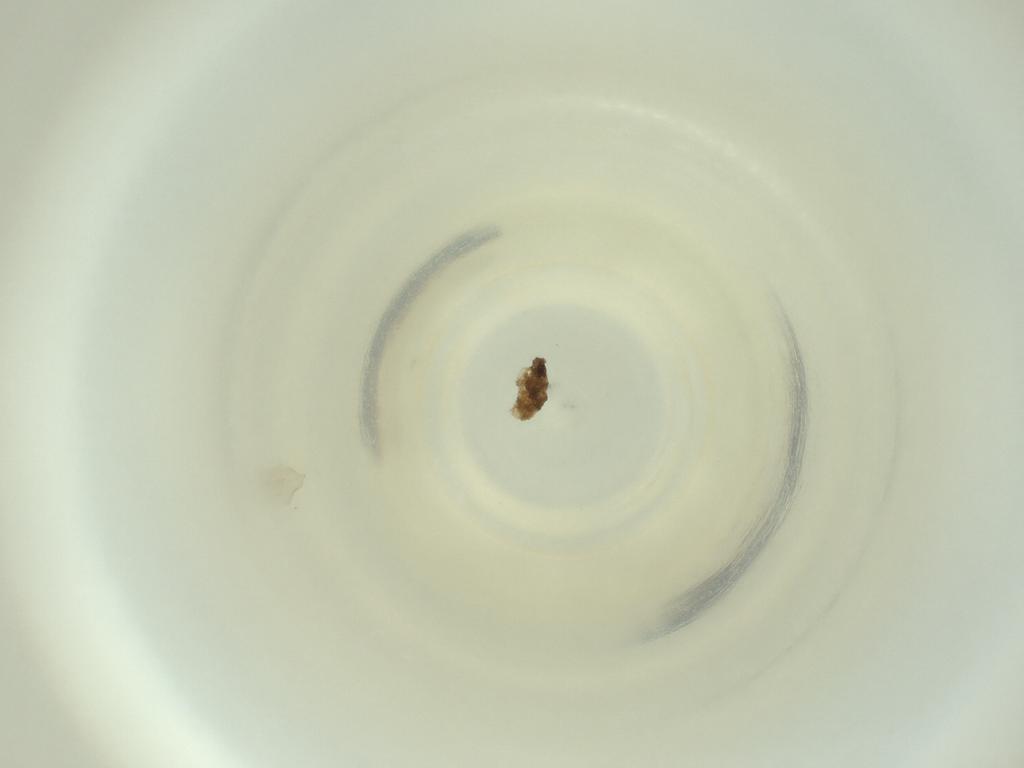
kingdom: Animalia
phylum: Arthropoda
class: Insecta
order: Diptera
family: Cecidomyiidae
